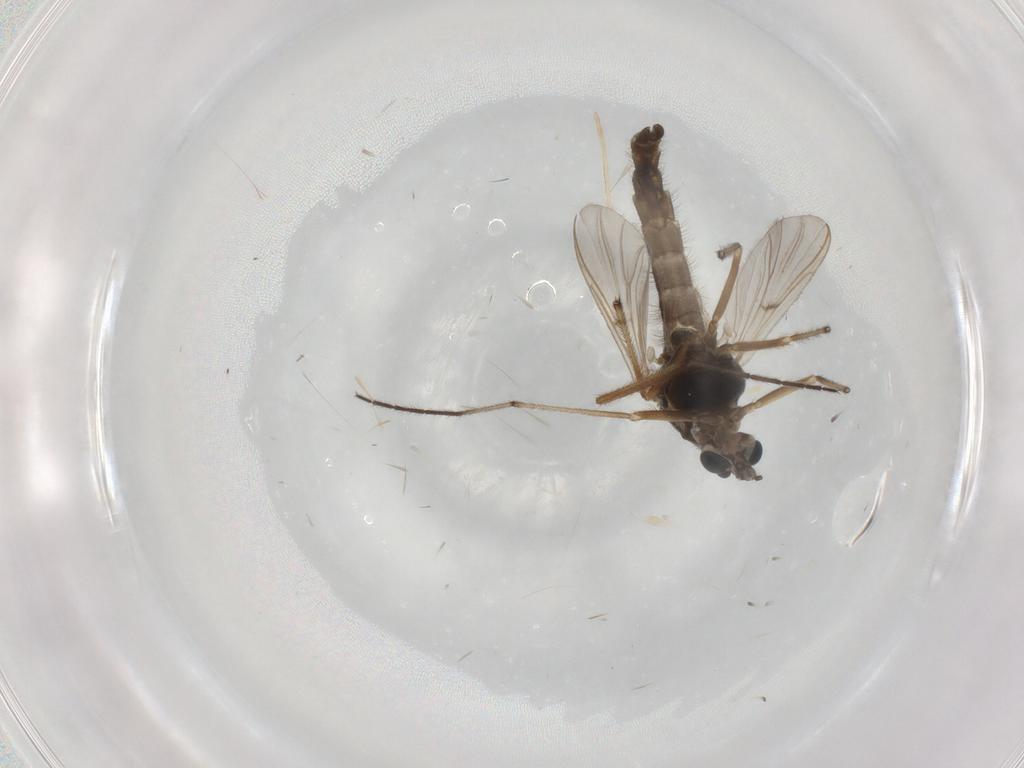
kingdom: Animalia
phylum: Arthropoda
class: Insecta
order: Diptera
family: Chironomidae
